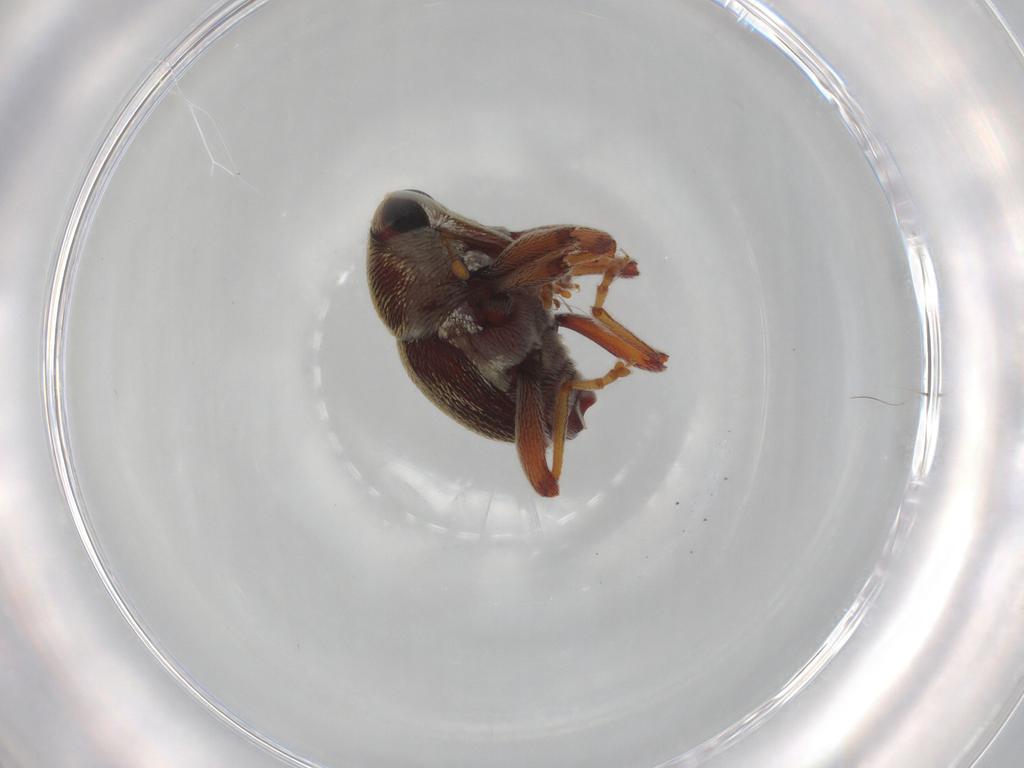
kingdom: Animalia
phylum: Arthropoda
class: Insecta
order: Coleoptera
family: Curculionidae
